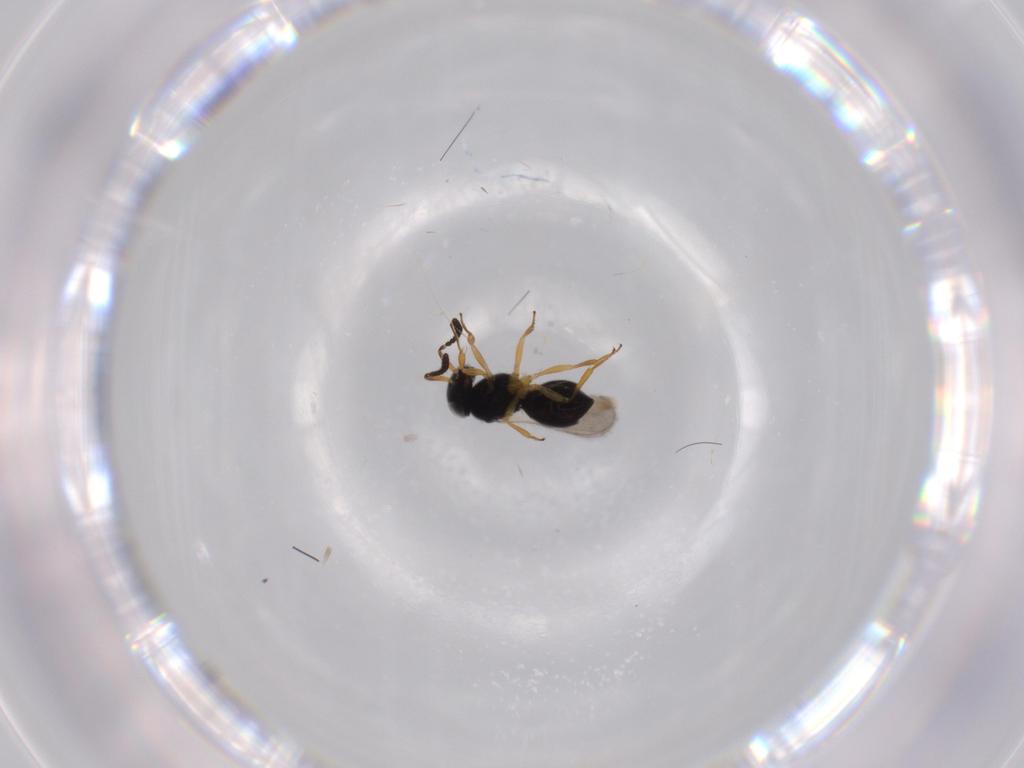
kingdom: Animalia
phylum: Arthropoda
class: Insecta
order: Hymenoptera
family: Scelionidae
